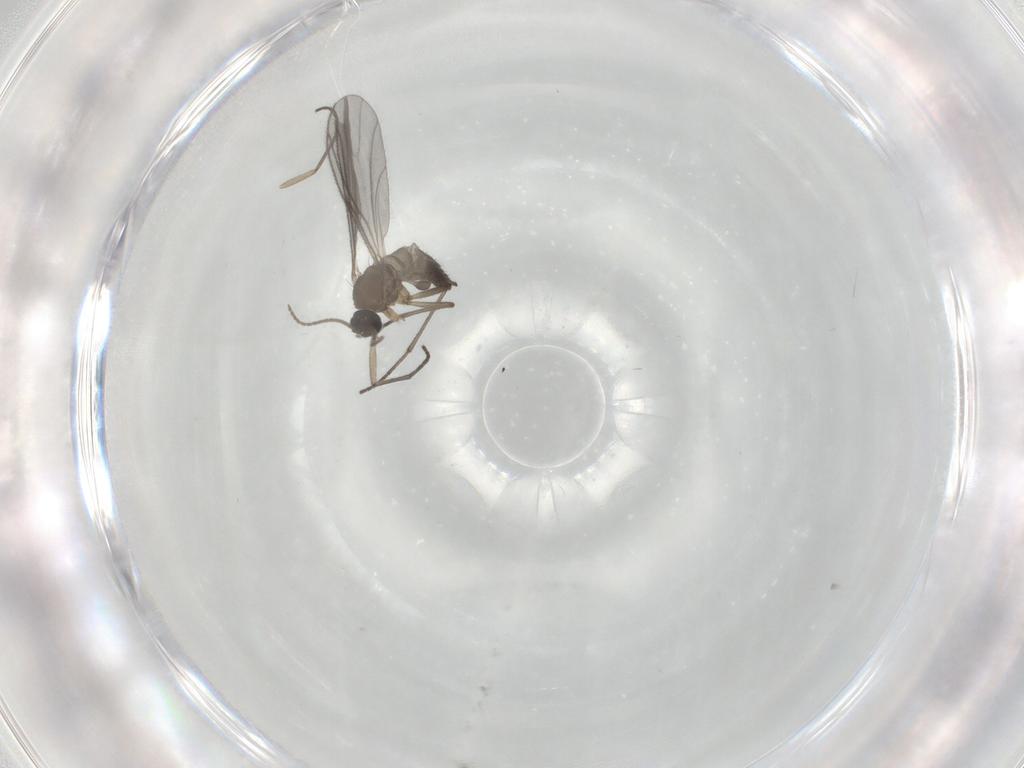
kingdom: Animalia
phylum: Arthropoda
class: Insecta
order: Diptera
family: Sciaridae
